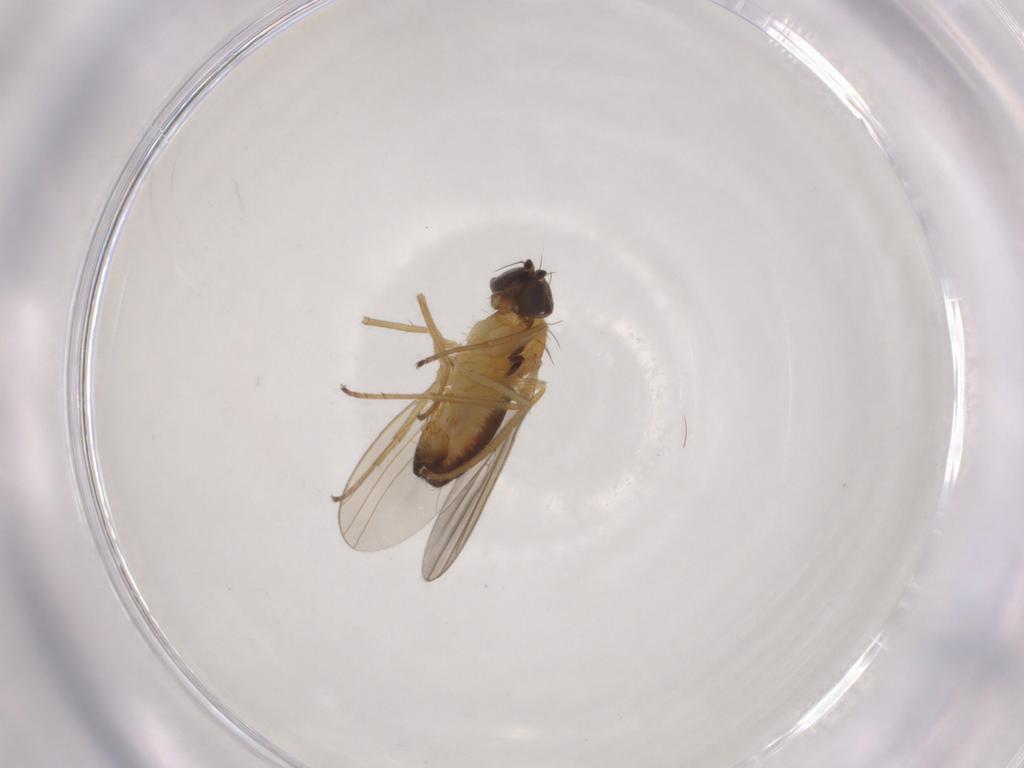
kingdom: Animalia
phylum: Arthropoda
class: Insecta
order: Diptera
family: Dolichopodidae
